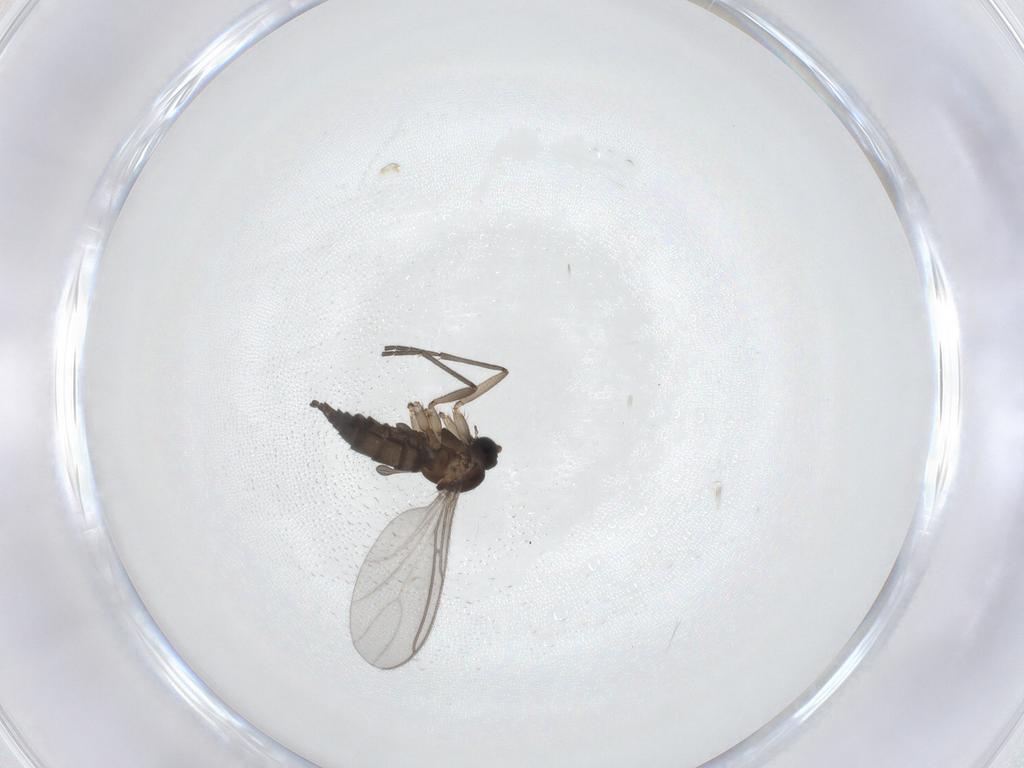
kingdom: Animalia
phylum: Arthropoda
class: Insecta
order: Diptera
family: Sciaridae
